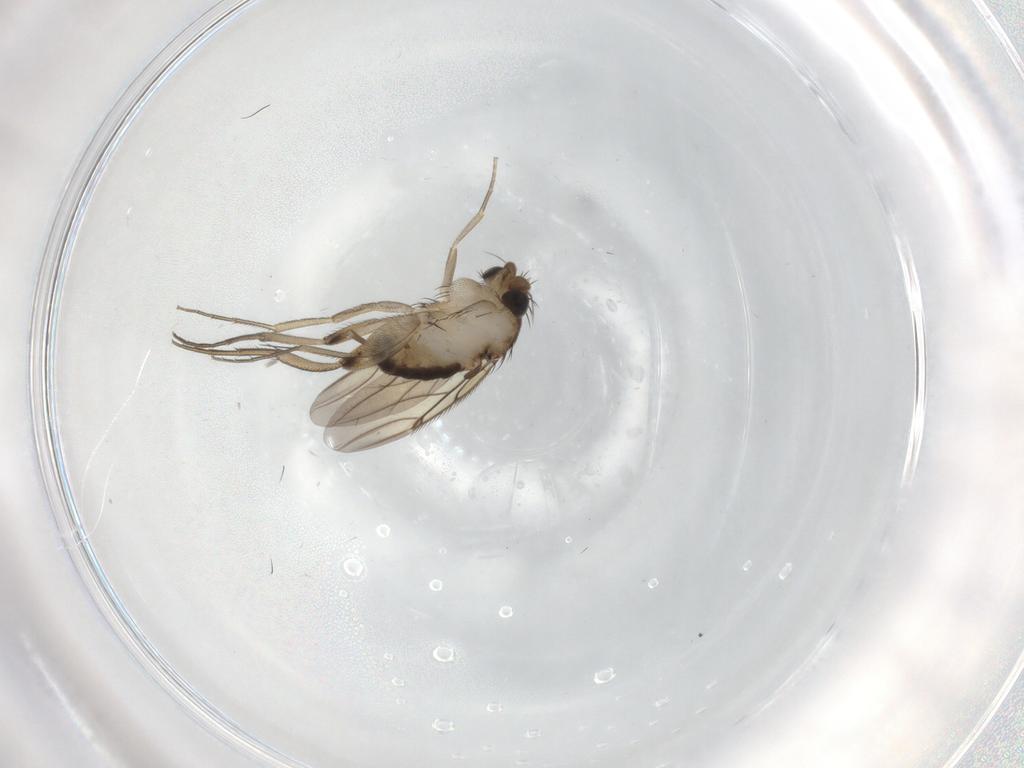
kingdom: Animalia
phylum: Arthropoda
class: Insecta
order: Diptera
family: Phoridae
